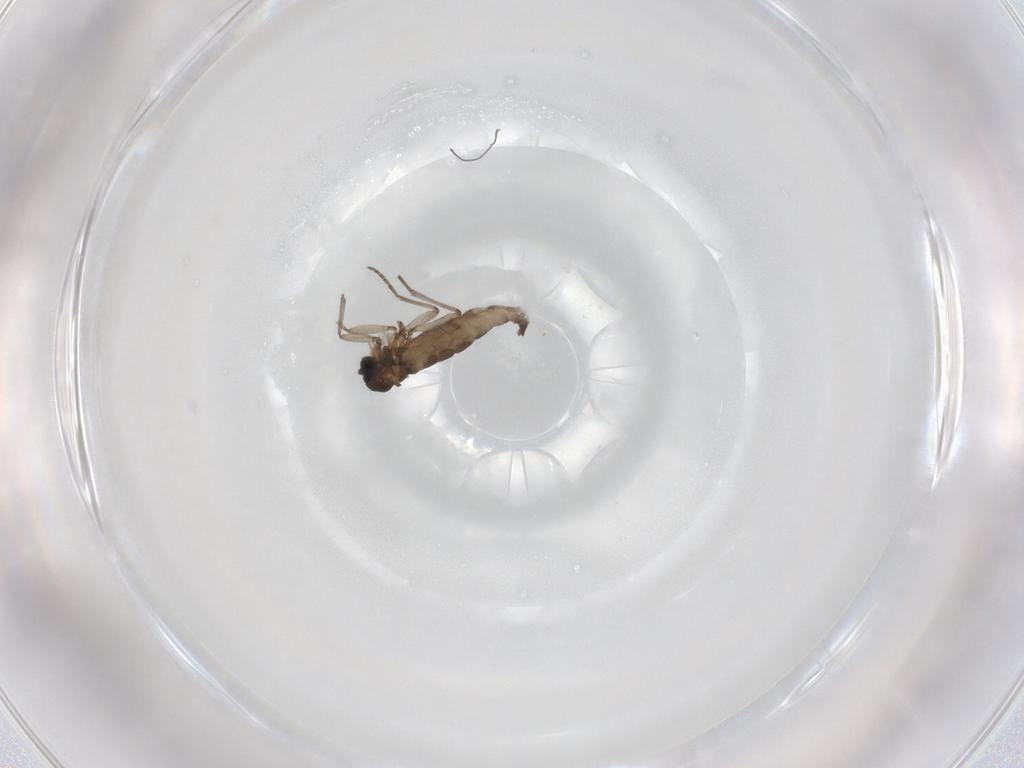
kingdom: Animalia
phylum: Arthropoda
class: Insecta
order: Diptera
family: Sciaridae
